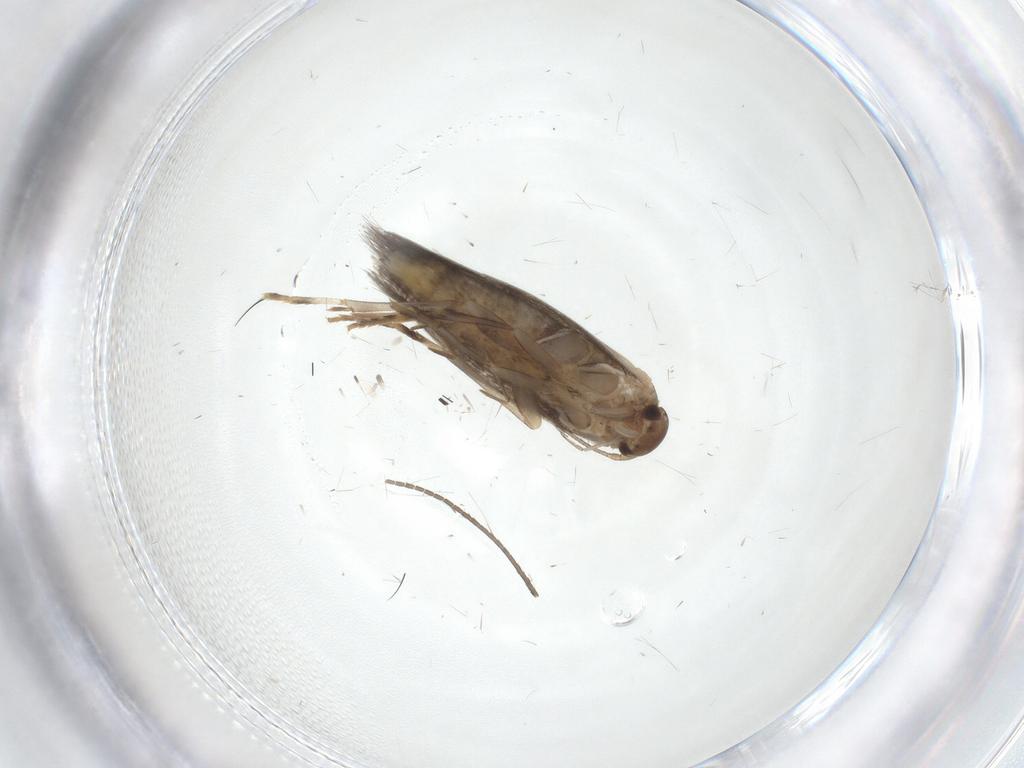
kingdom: Animalia
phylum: Arthropoda
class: Insecta
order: Lepidoptera
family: Elachistidae
